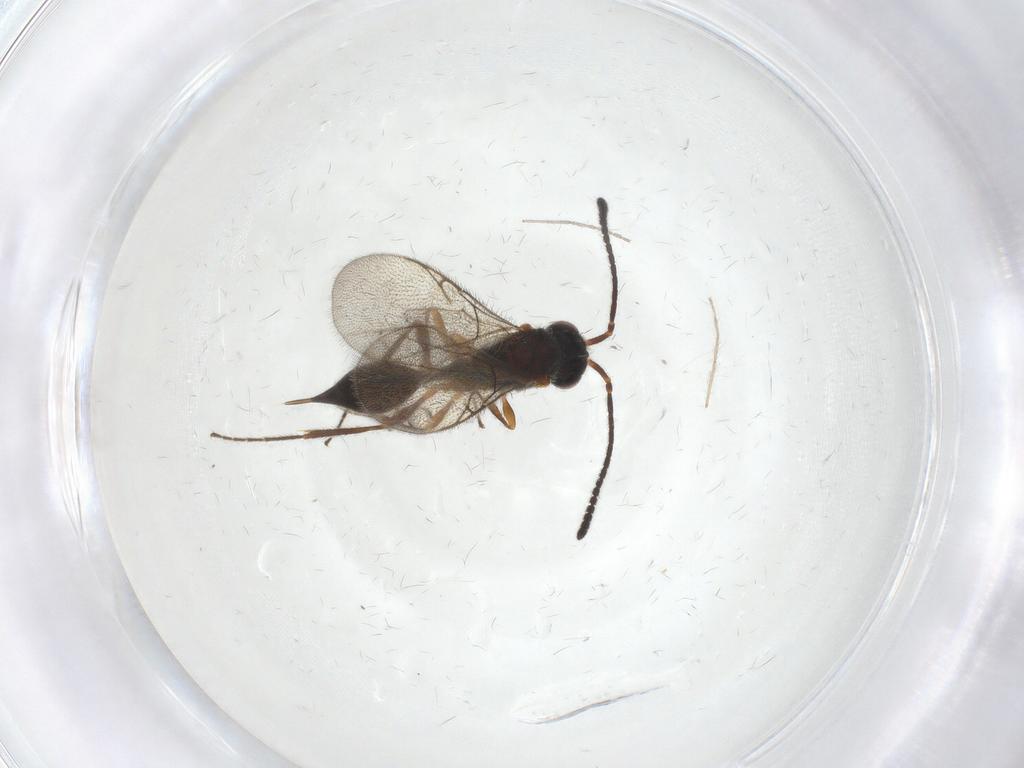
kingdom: Animalia
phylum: Arthropoda
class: Insecta
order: Hymenoptera
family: Diapriidae
